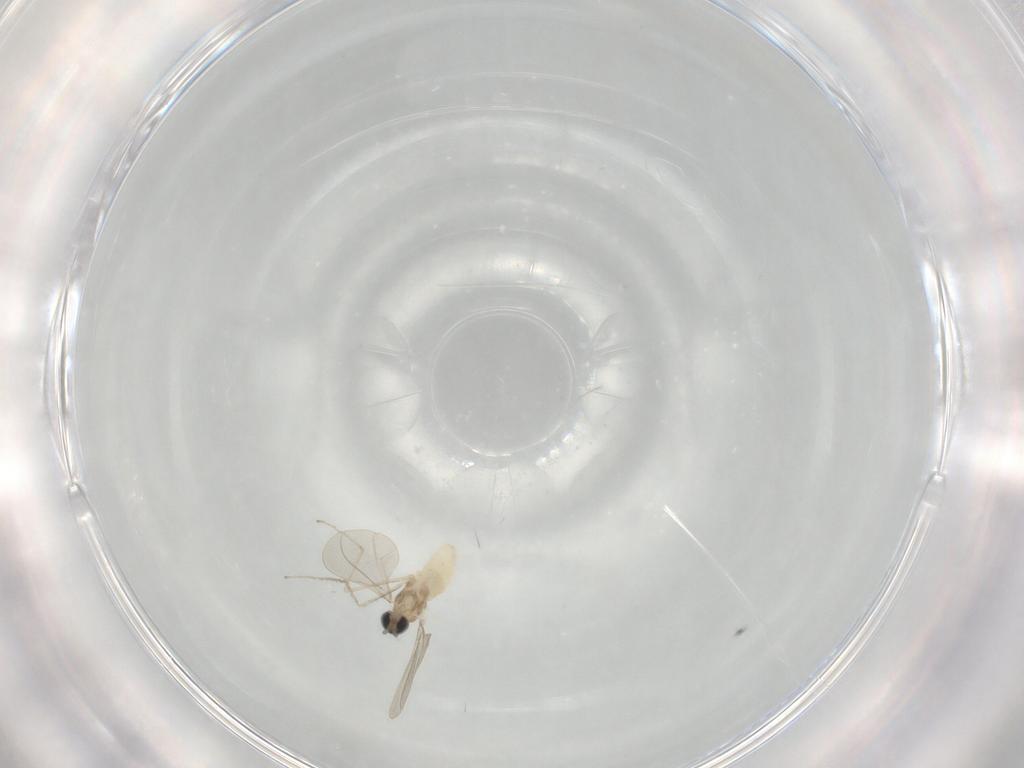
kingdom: Animalia
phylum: Arthropoda
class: Insecta
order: Diptera
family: Cecidomyiidae
